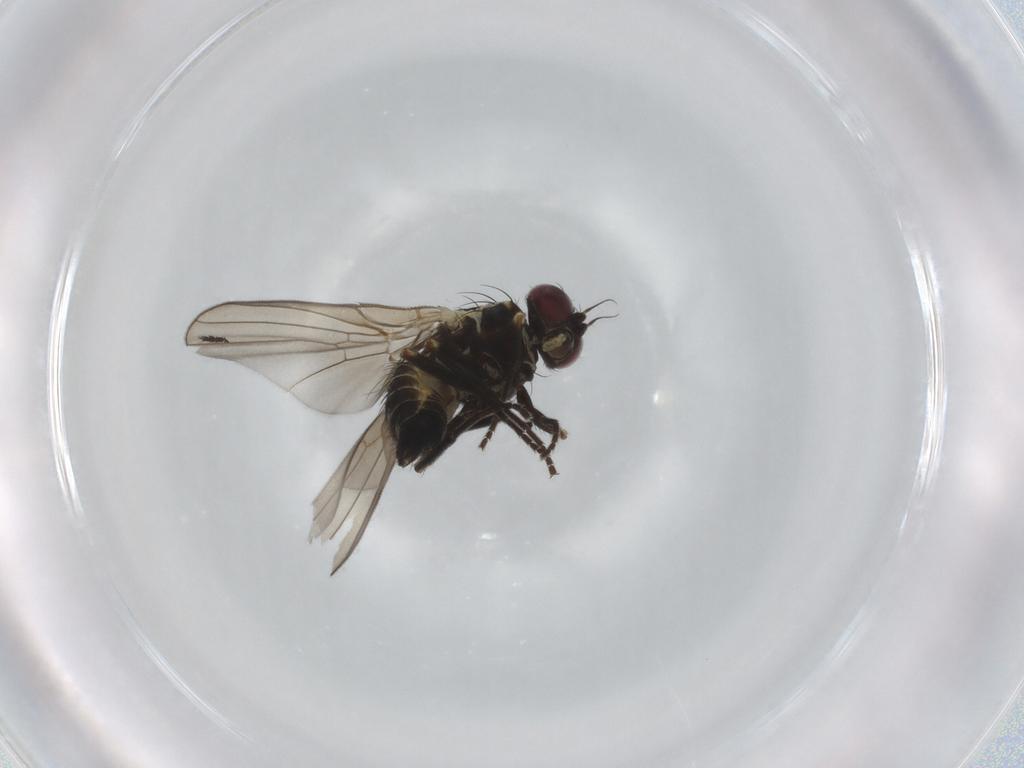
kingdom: Animalia
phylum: Arthropoda
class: Insecta
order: Diptera
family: Agromyzidae
